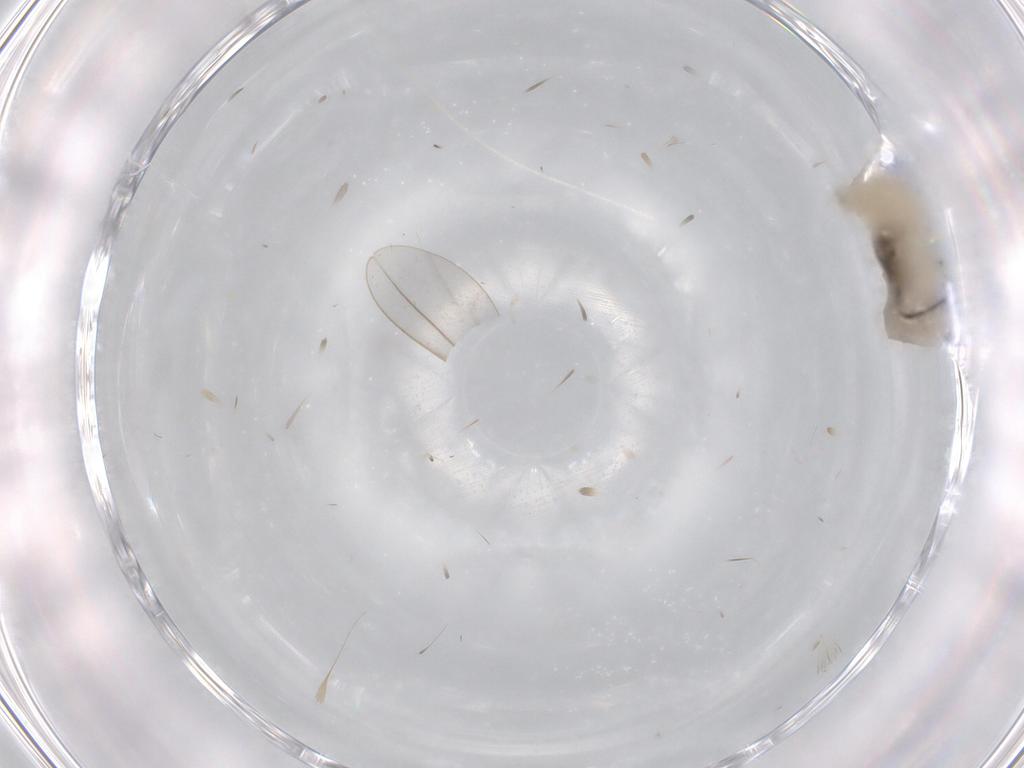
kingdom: Animalia
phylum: Arthropoda
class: Insecta
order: Diptera
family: Cecidomyiidae
